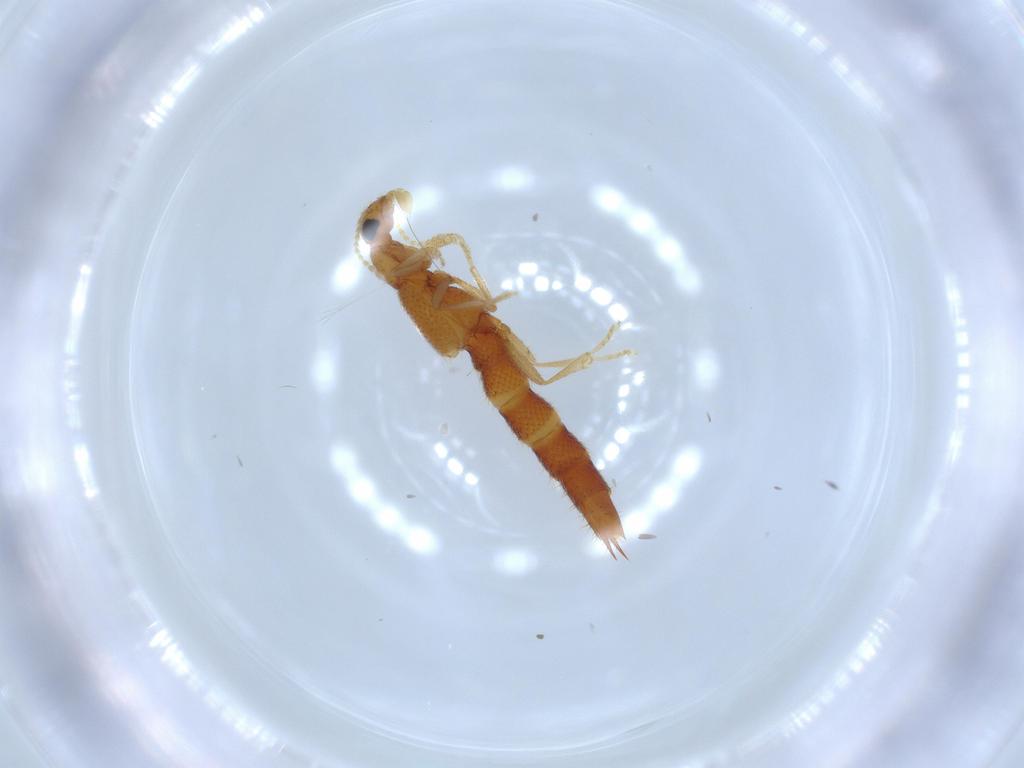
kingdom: Animalia
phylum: Arthropoda
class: Insecta
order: Coleoptera
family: Staphylinidae
